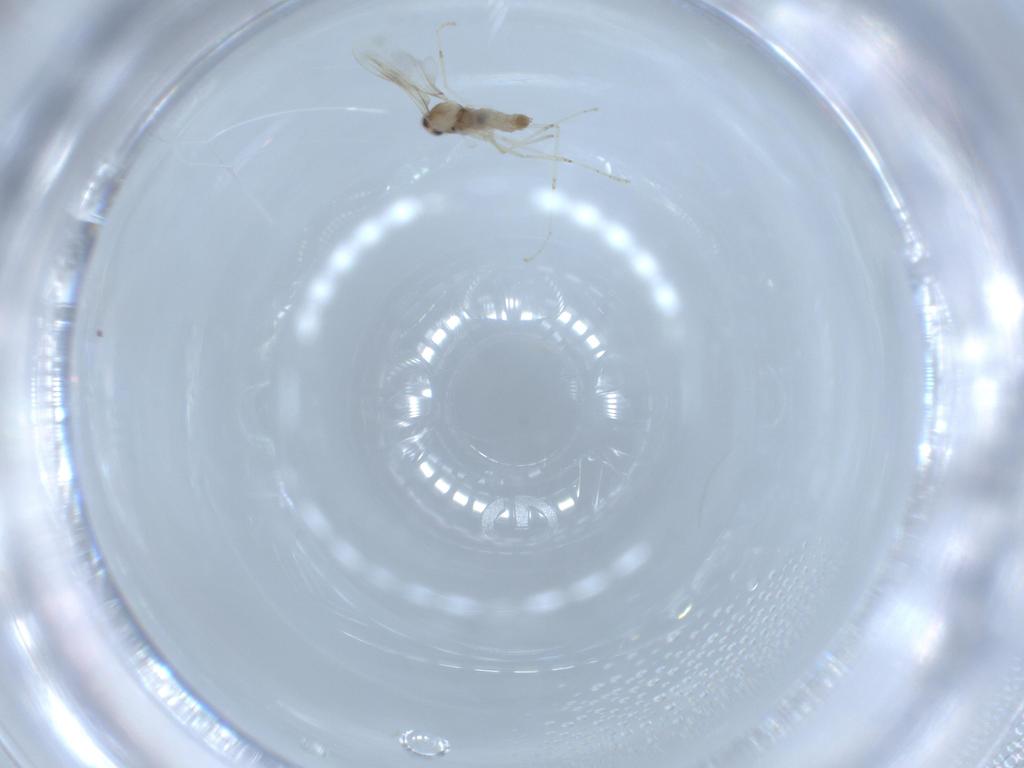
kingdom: Animalia
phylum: Arthropoda
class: Insecta
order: Diptera
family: Cecidomyiidae
